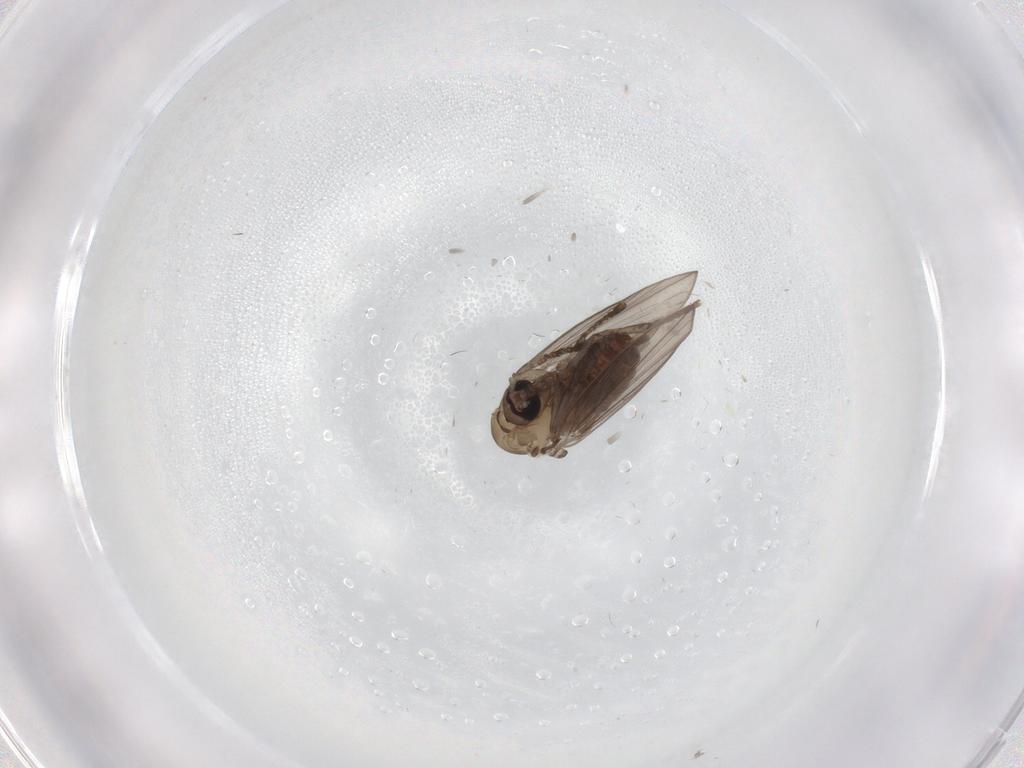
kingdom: Animalia
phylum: Arthropoda
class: Insecta
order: Diptera
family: Psychodidae
